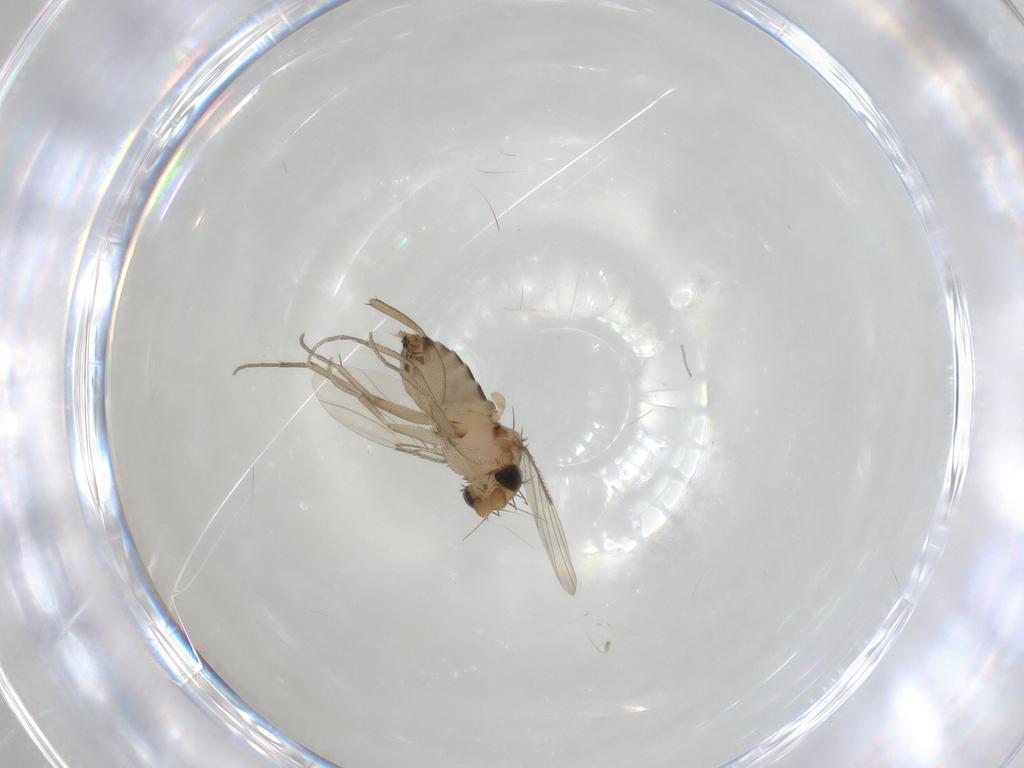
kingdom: Animalia
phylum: Arthropoda
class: Insecta
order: Diptera
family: Phoridae
